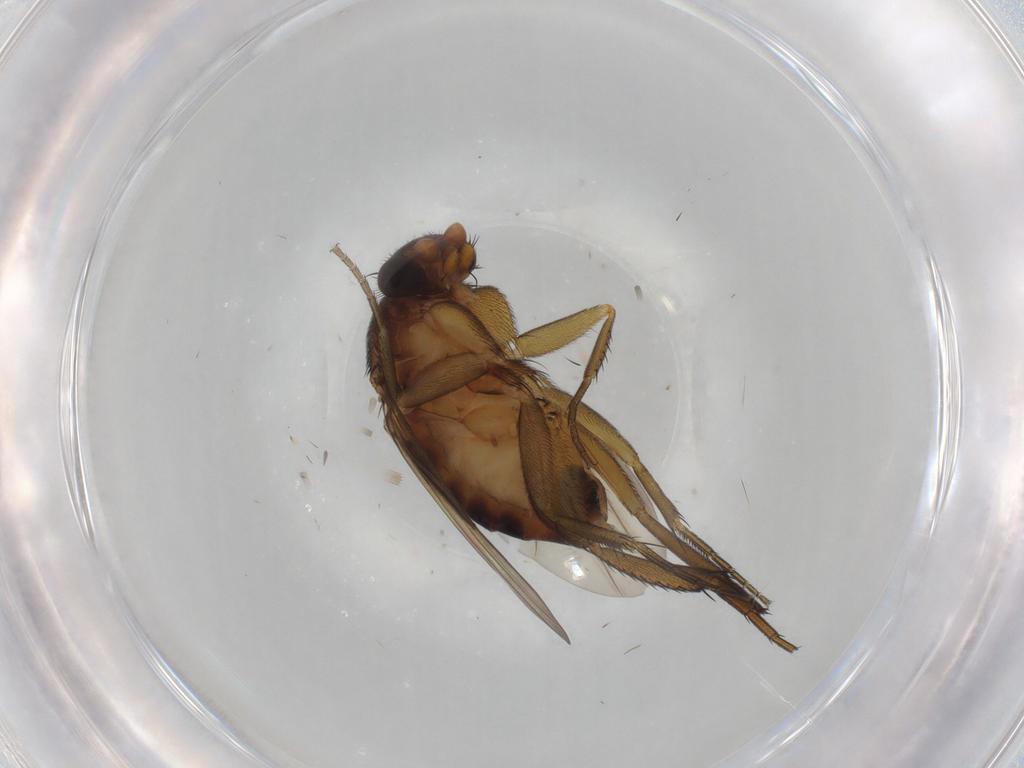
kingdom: Animalia
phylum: Arthropoda
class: Insecta
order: Diptera
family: Phoridae
